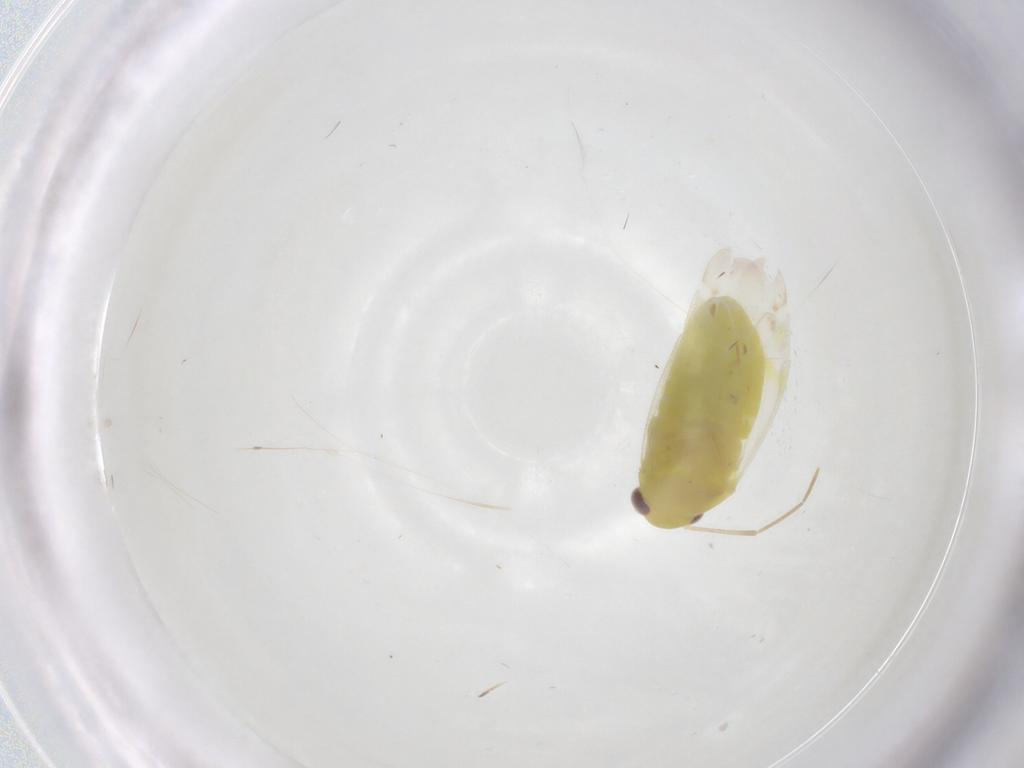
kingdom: Animalia
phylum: Arthropoda
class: Insecta
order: Hemiptera
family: Miridae
